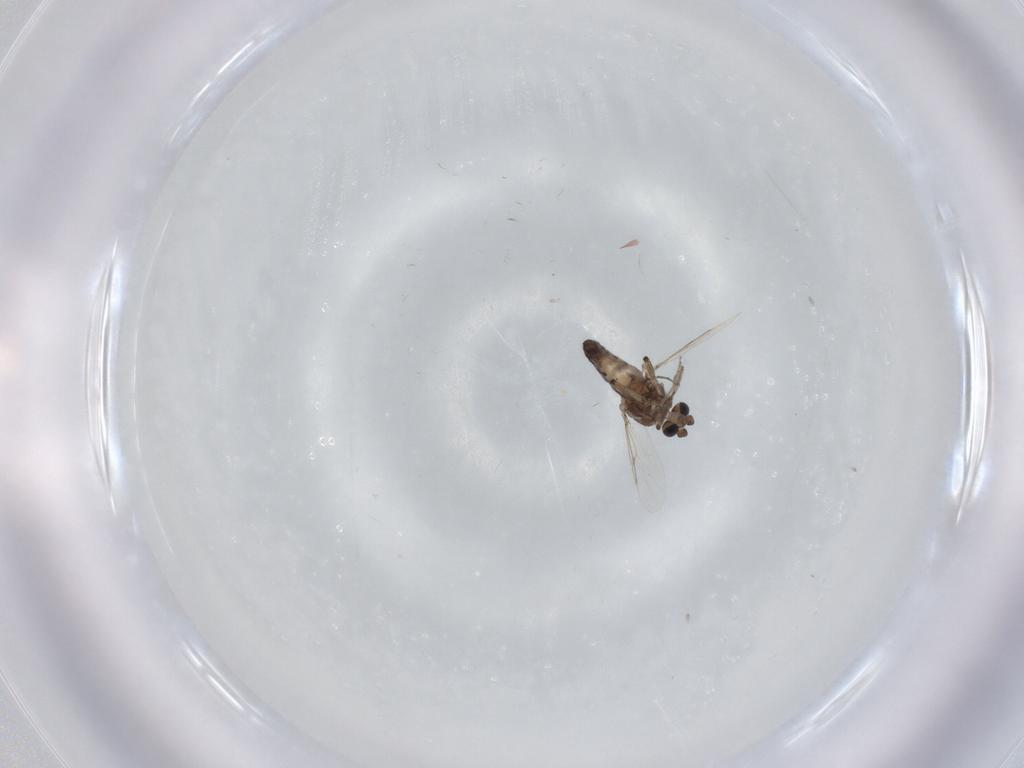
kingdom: Animalia
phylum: Arthropoda
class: Insecta
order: Diptera
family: Ceratopogonidae
